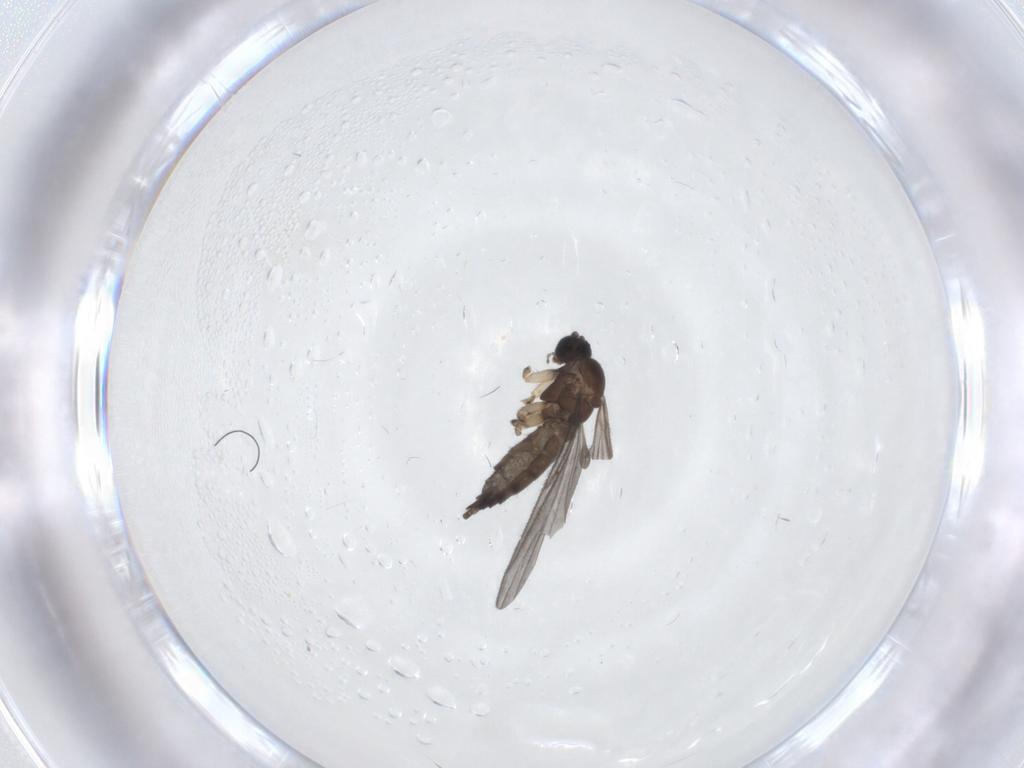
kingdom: Animalia
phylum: Arthropoda
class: Insecta
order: Diptera
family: Sciaridae
